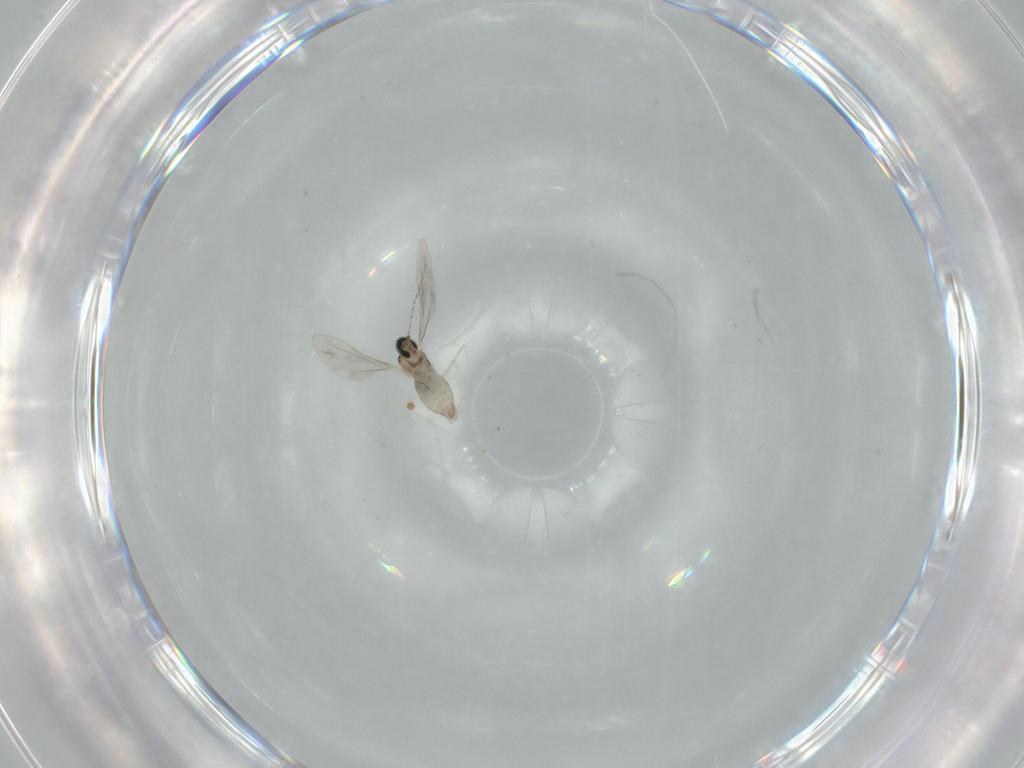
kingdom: Animalia
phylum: Arthropoda
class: Insecta
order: Diptera
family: Cecidomyiidae
